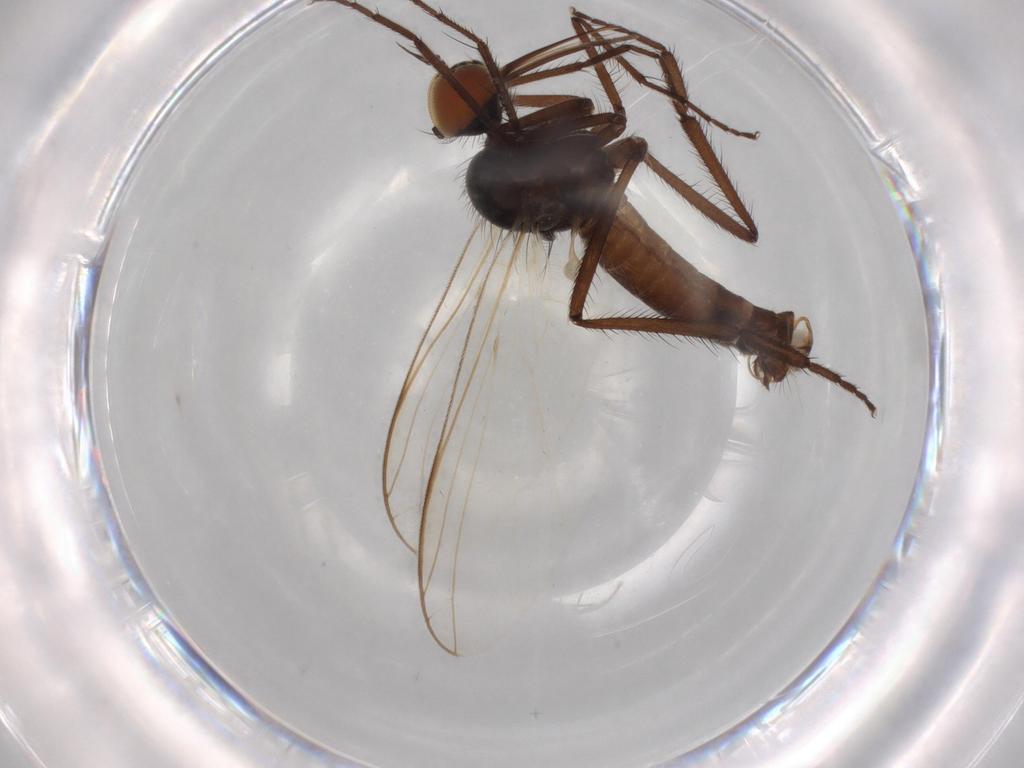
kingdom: Animalia
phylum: Arthropoda
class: Insecta
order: Diptera
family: Empididae
